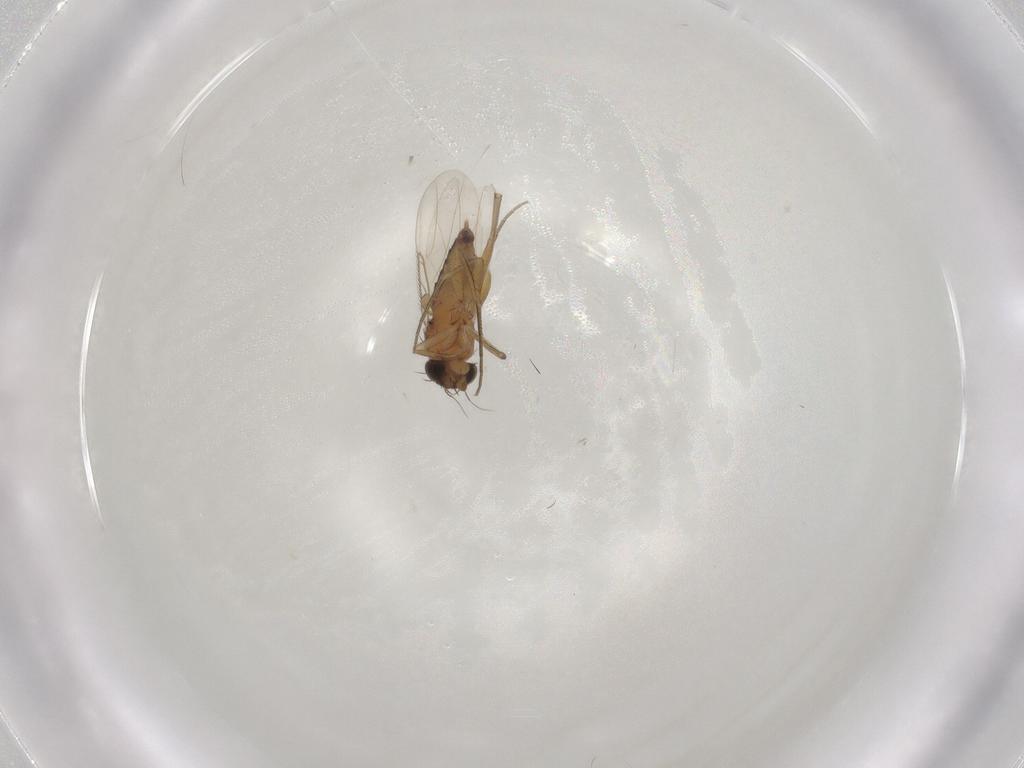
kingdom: Animalia
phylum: Arthropoda
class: Insecta
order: Diptera
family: Phoridae
